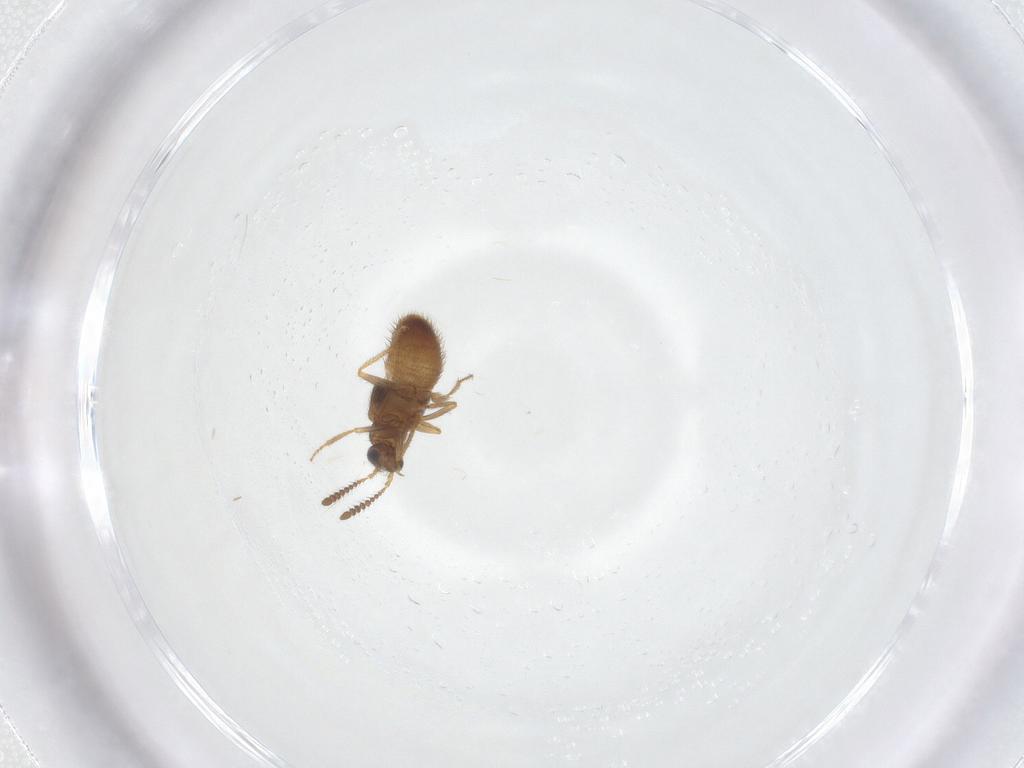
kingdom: Animalia
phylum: Arthropoda
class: Insecta
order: Coleoptera
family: Staphylinidae
